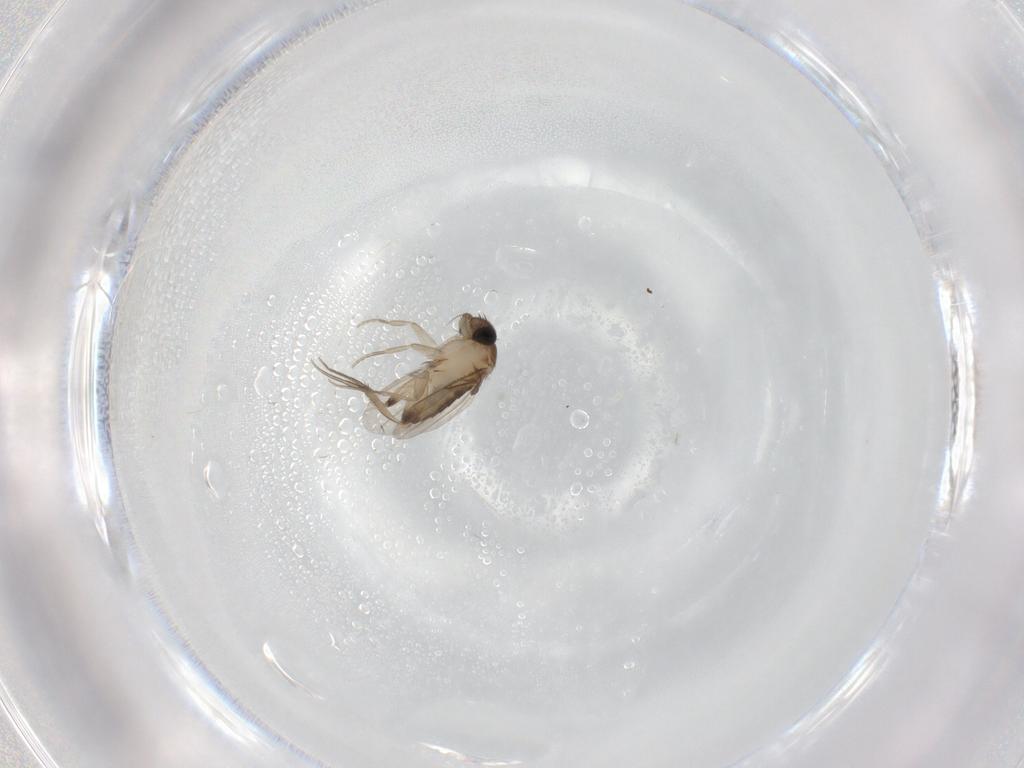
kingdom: Animalia
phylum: Arthropoda
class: Insecta
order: Diptera
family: Phoridae
